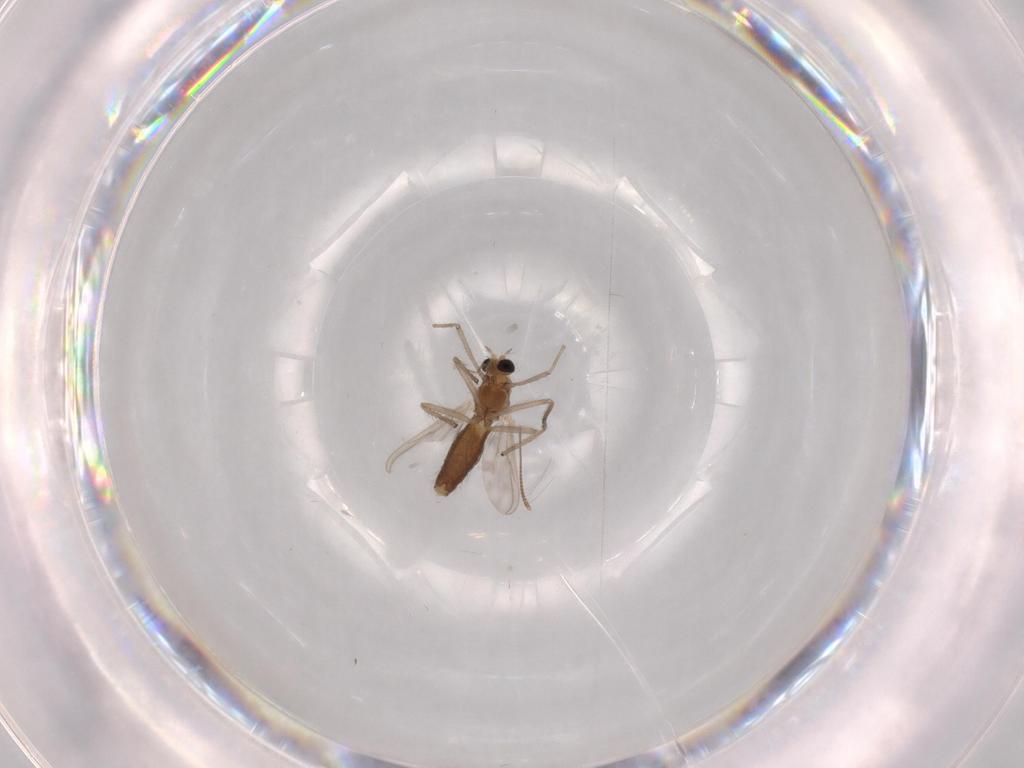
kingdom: Animalia
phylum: Arthropoda
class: Insecta
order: Diptera
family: Chironomidae
